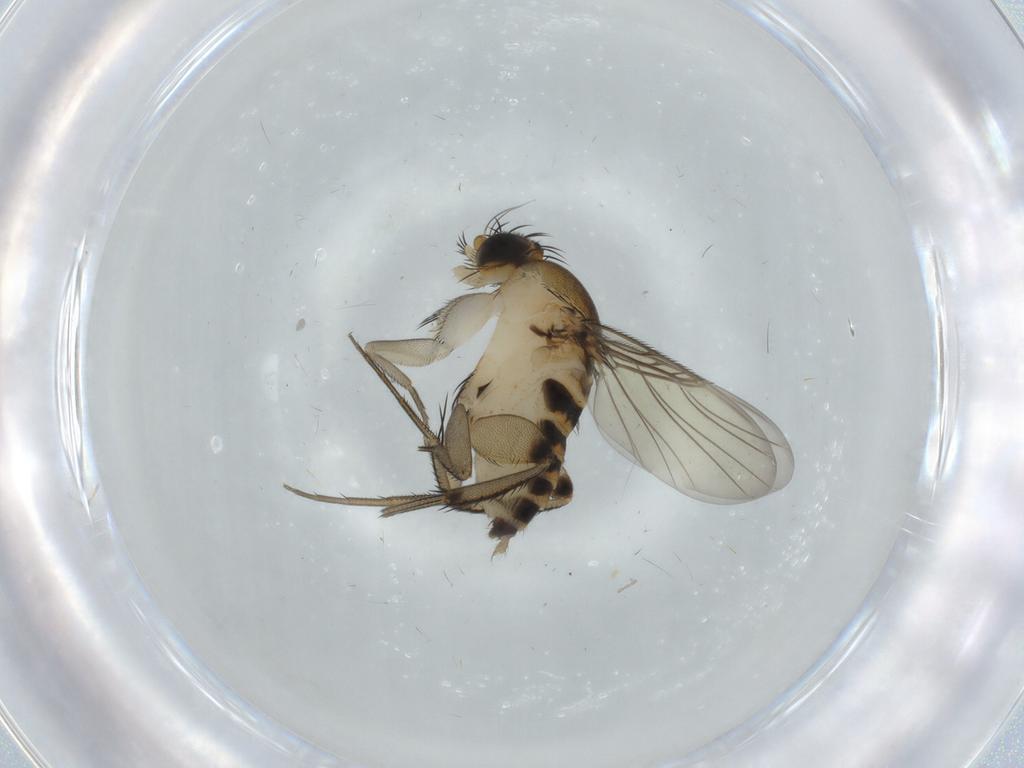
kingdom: Animalia
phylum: Arthropoda
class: Insecta
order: Diptera
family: Phoridae
